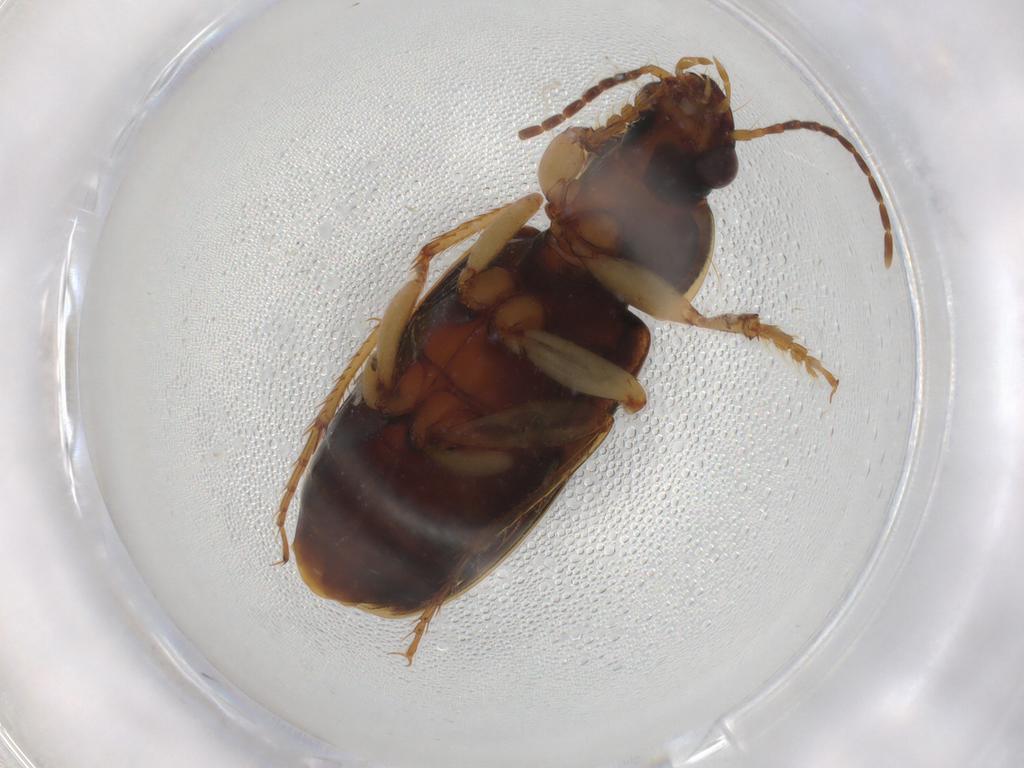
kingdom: Animalia
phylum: Arthropoda
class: Insecta
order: Coleoptera
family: Carabidae
